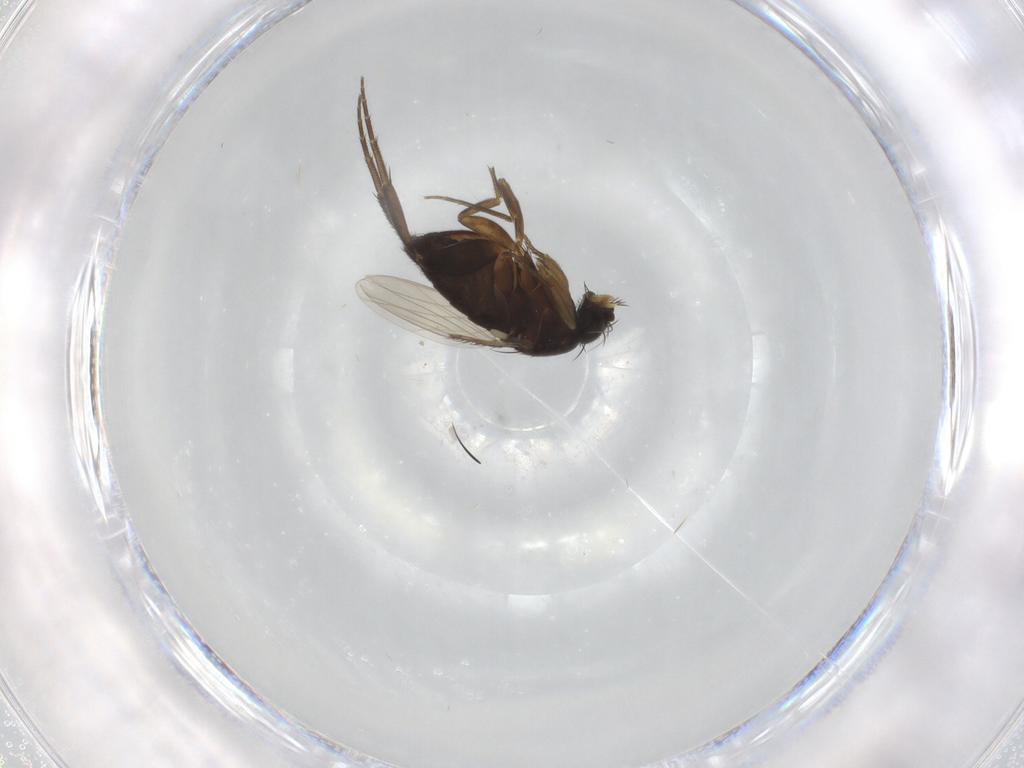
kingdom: Animalia
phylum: Arthropoda
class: Insecta
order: Diptera
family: Phoridae
